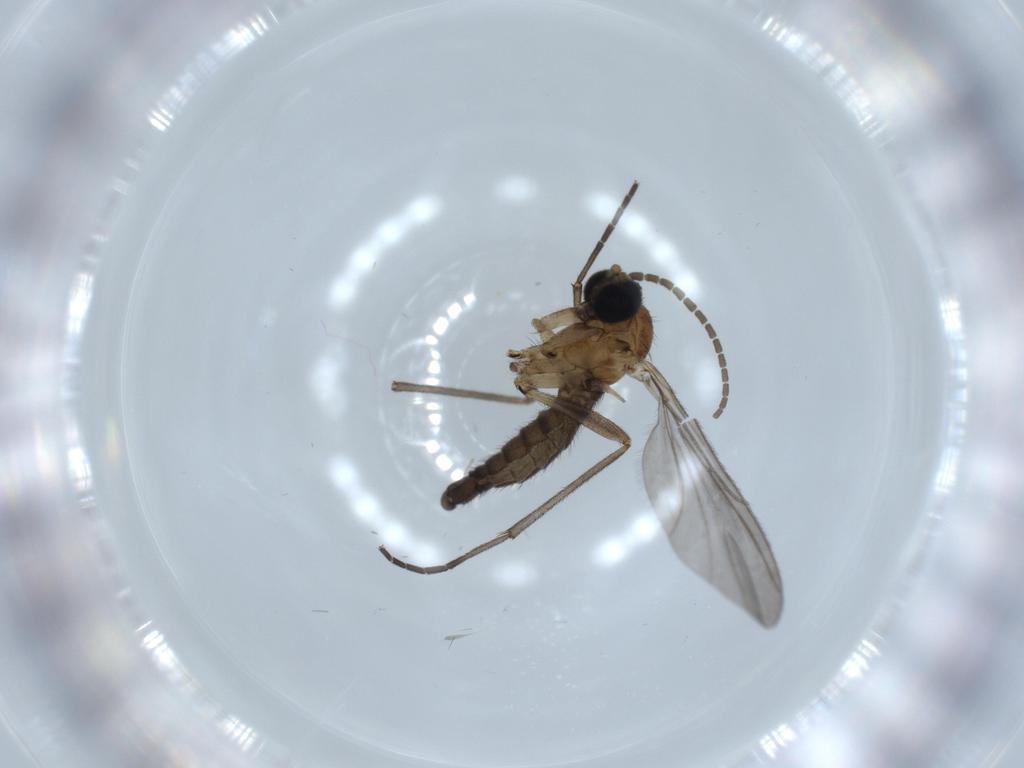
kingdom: Animalia
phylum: Arthropoda
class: Insecta
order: Diptera
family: Sciaridae
